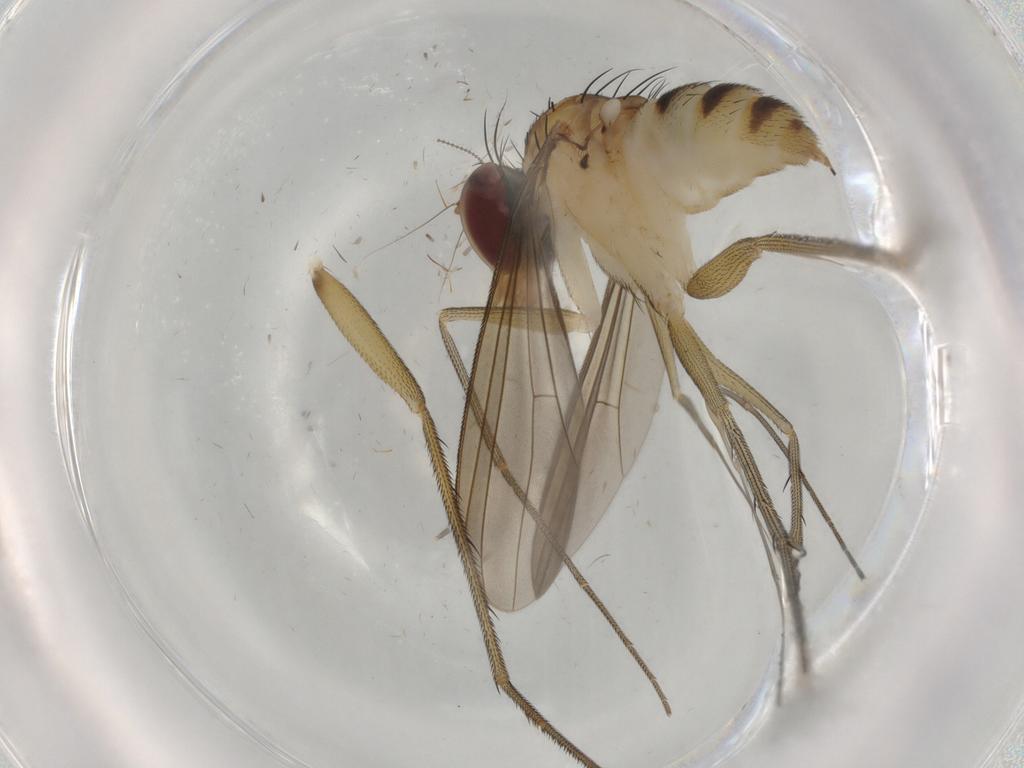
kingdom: Animalia
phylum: Arthropoda
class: Insecta
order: Diptera
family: Dolichopodidae
